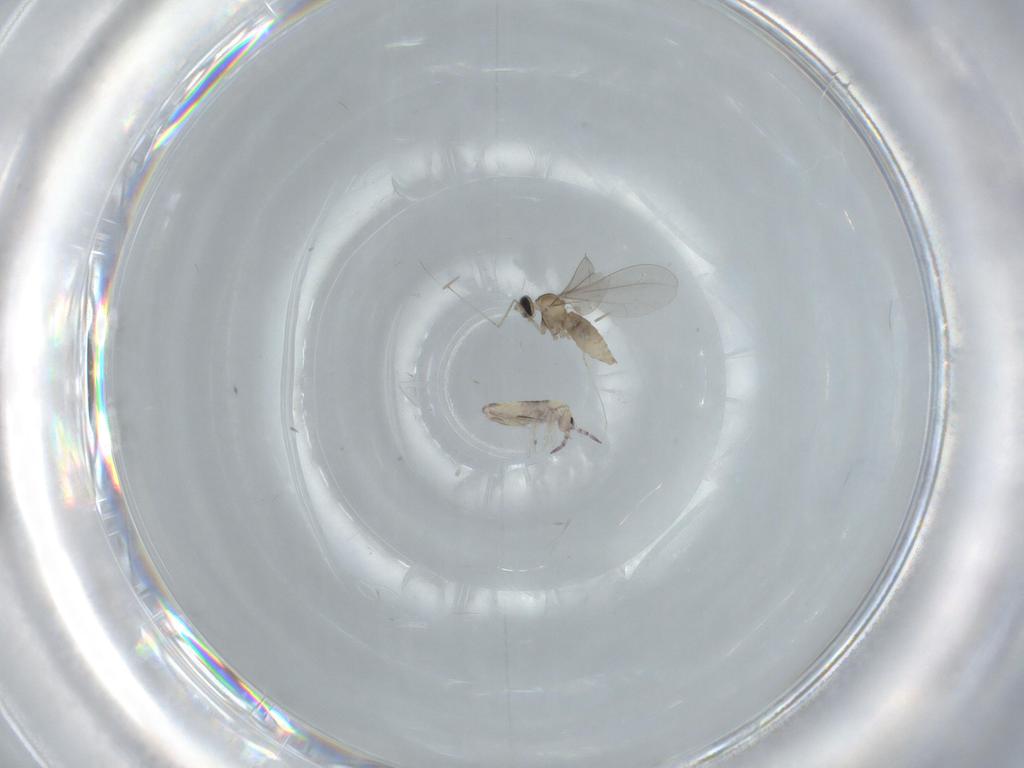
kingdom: Animalia
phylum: Arthropoda
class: Collembola
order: Entomobryomorpha
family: Entomobryidae
